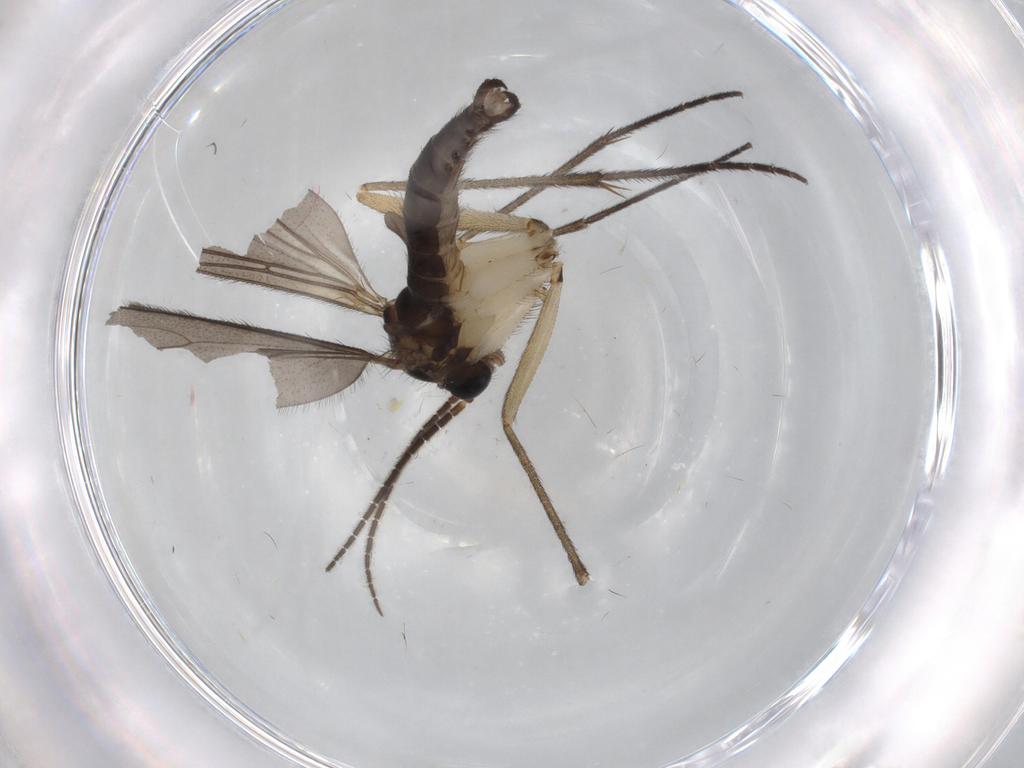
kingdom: Animalia
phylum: Arthropoda
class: Insecta
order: Diptera
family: Sciaridae
